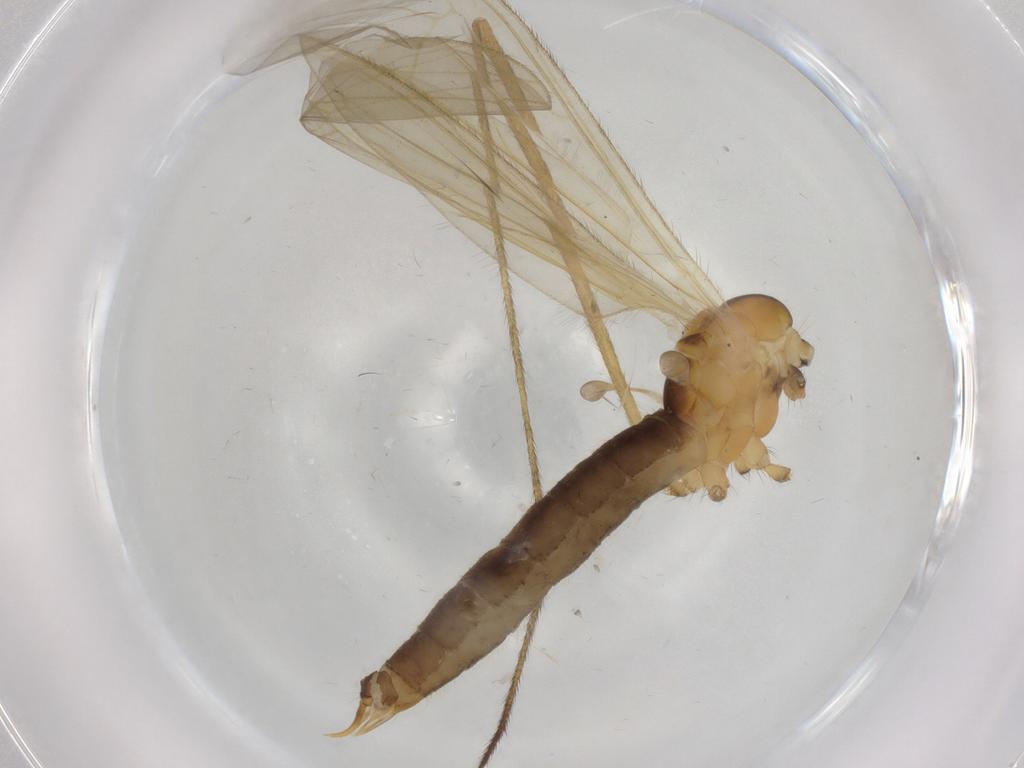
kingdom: Animalia
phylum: Arthropoda
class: Insecta
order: Diptera
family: Limoniidae
